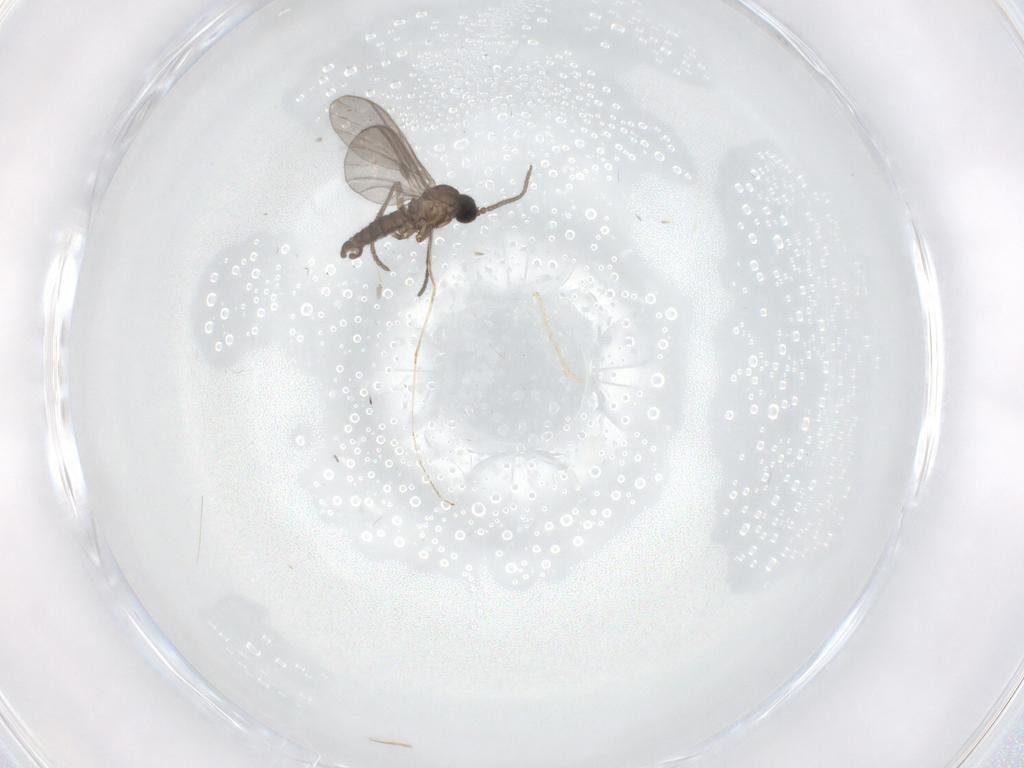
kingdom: Animalia
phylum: Arthropoda
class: Insecta
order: Diptera
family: Sciaridae
